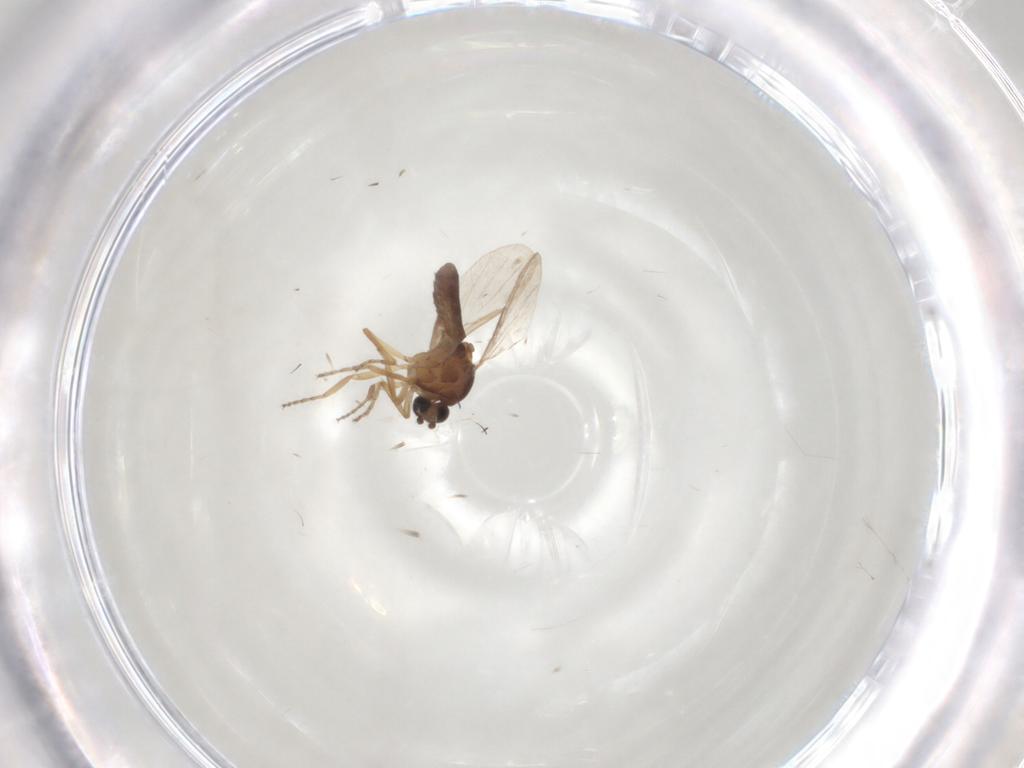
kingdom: Animalia
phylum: Arthropoda
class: Insecta
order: Diptera
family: Ceratopogonidae
